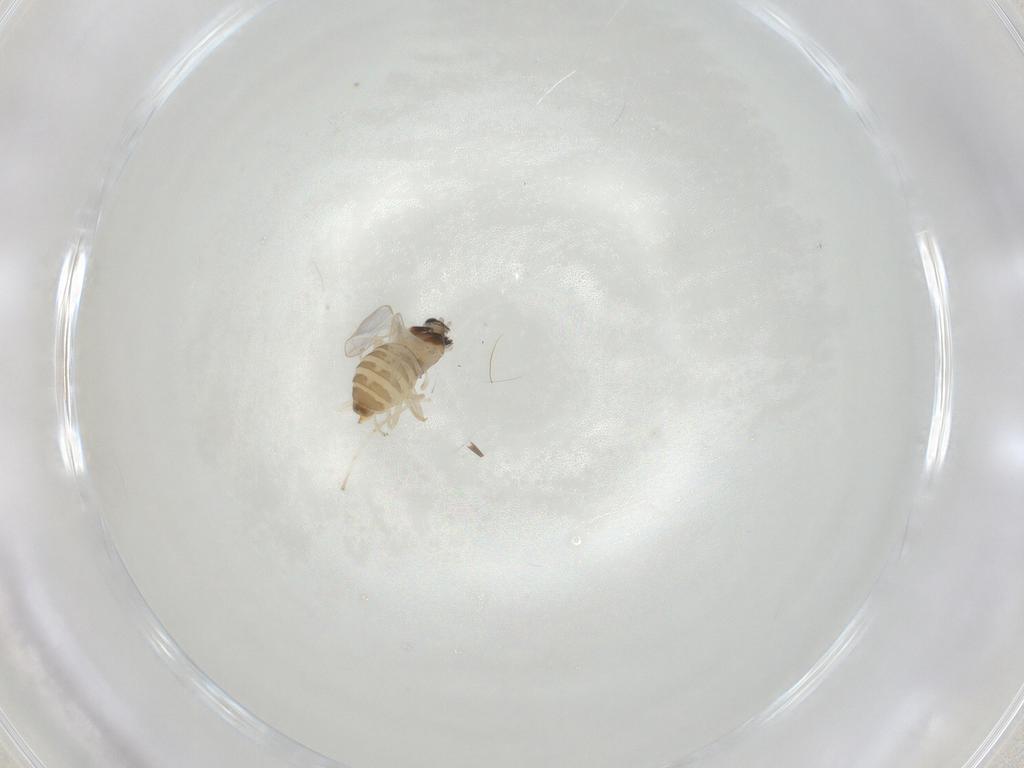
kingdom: Animalia
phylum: Arthropoda
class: Insecta
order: Diptera
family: Cecidomyiidae
